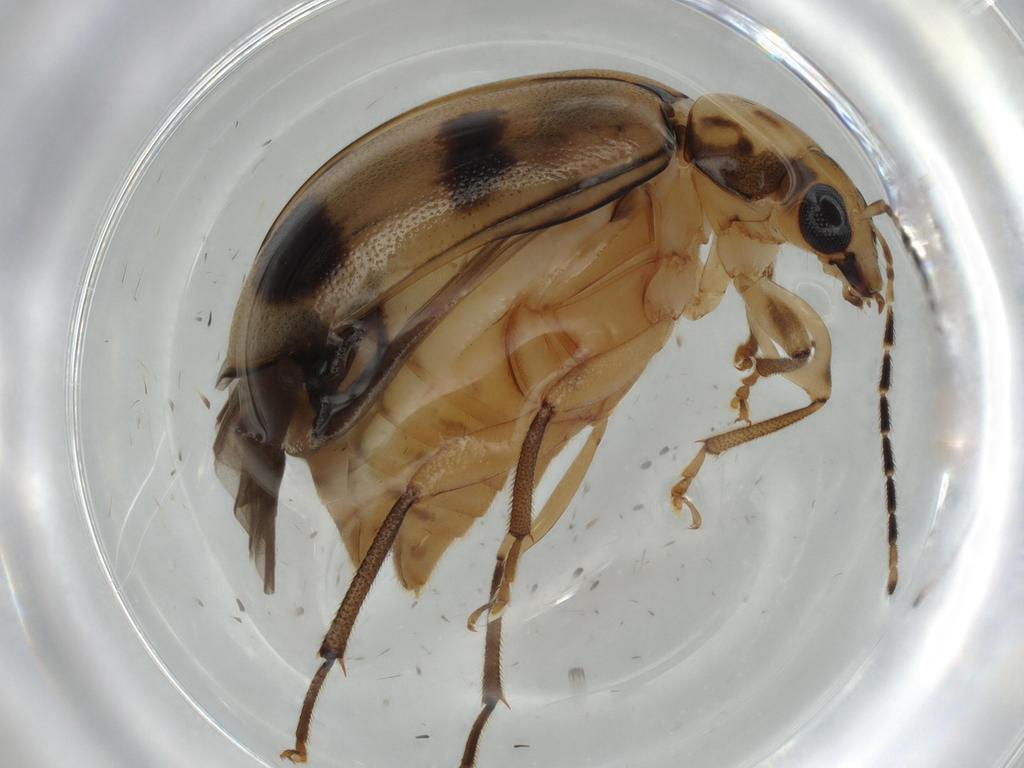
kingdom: Animalia
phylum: Arthropoda
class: Insecta
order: Coleoptera
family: Chrysomelidae
